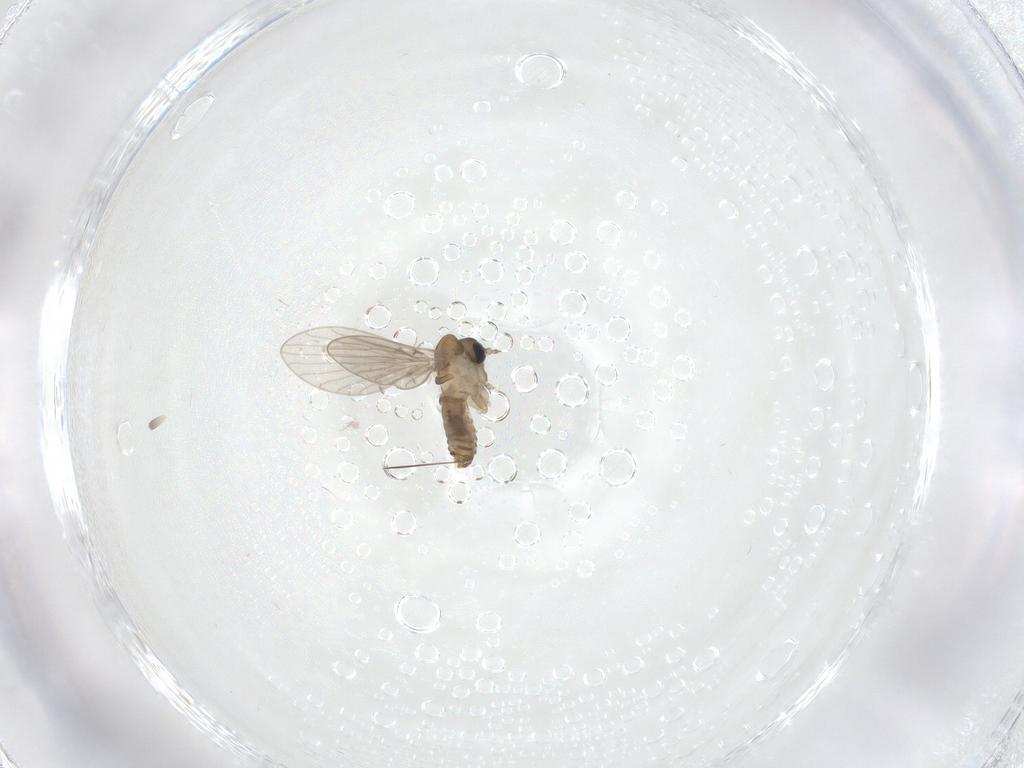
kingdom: Animalia
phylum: Arthropoda
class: Insecta
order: Diptera
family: Psychodidae
